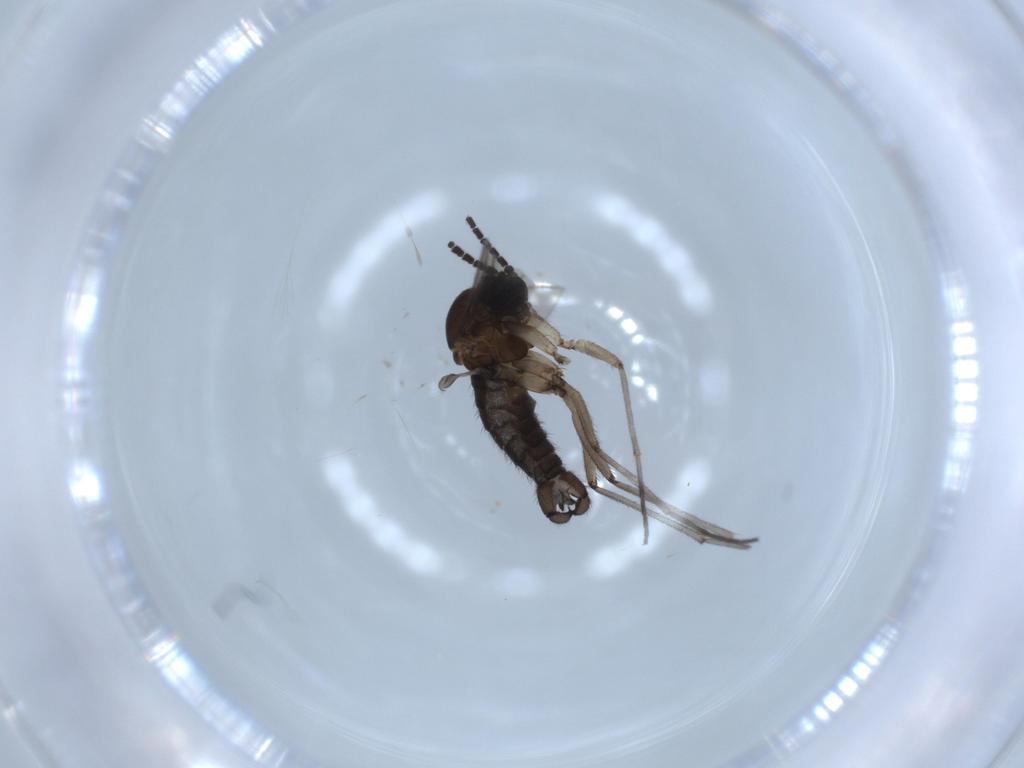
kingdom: Animalia
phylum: Arthropoda
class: Insecta
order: Diptera
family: Sciaridae
